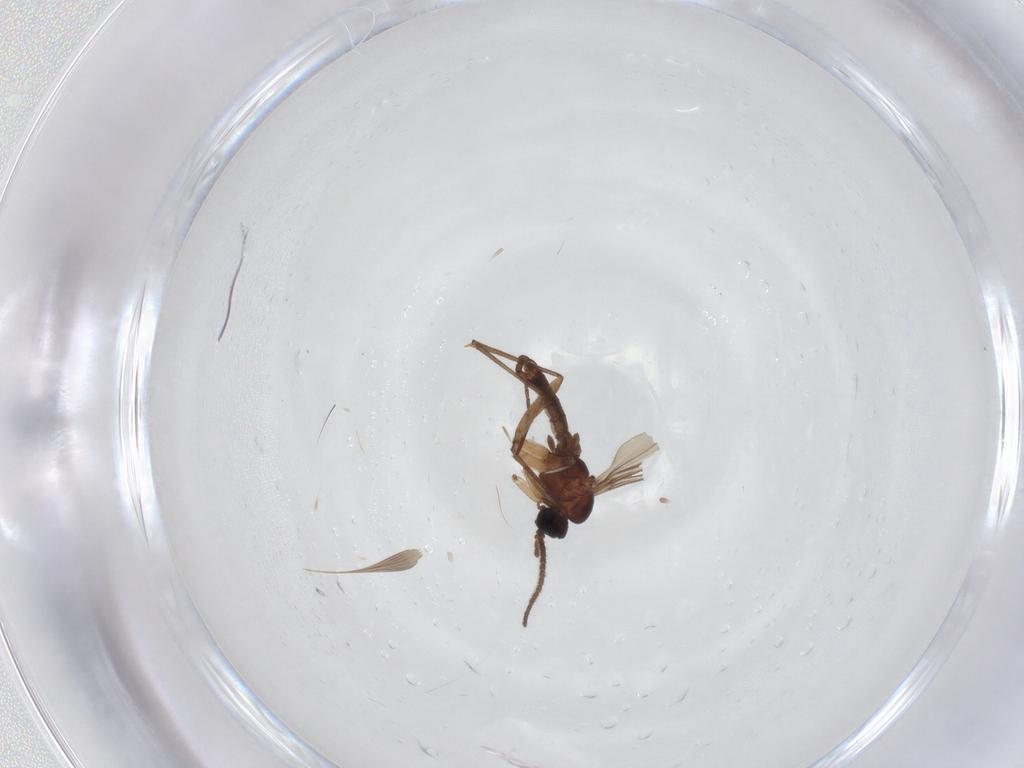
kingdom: Animalia
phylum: Arthropoda
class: Insecta
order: Diptera
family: Sciaridae
